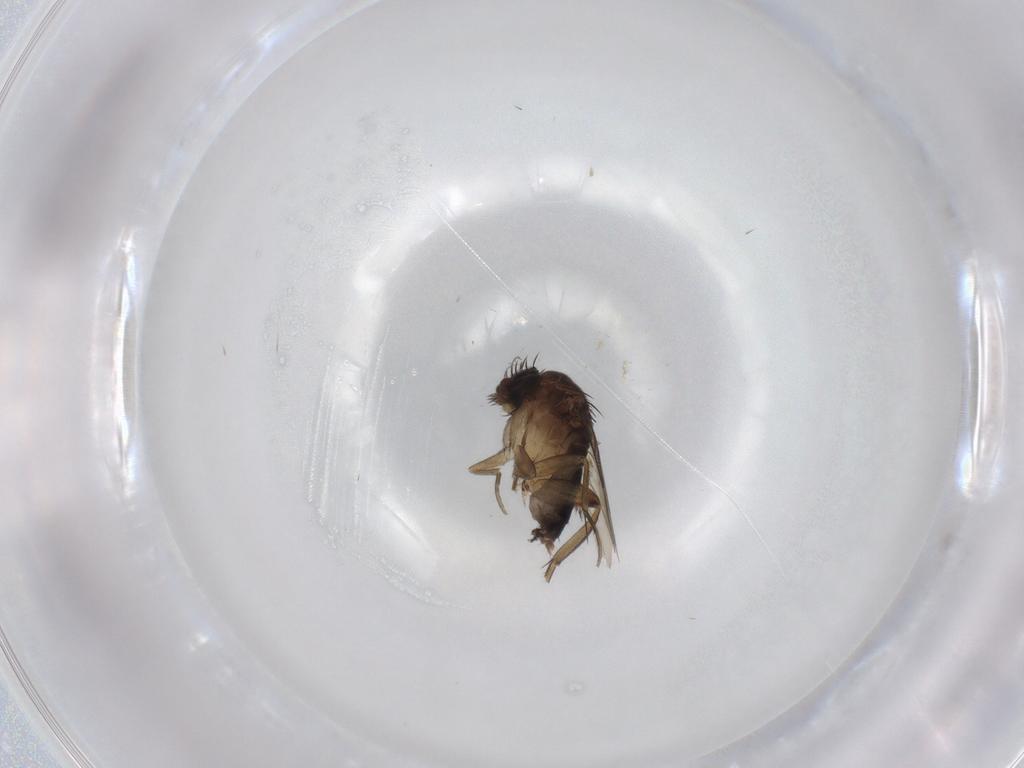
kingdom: Animalia
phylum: Arthropoda
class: Insecta
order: Diptera
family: Phoridae
